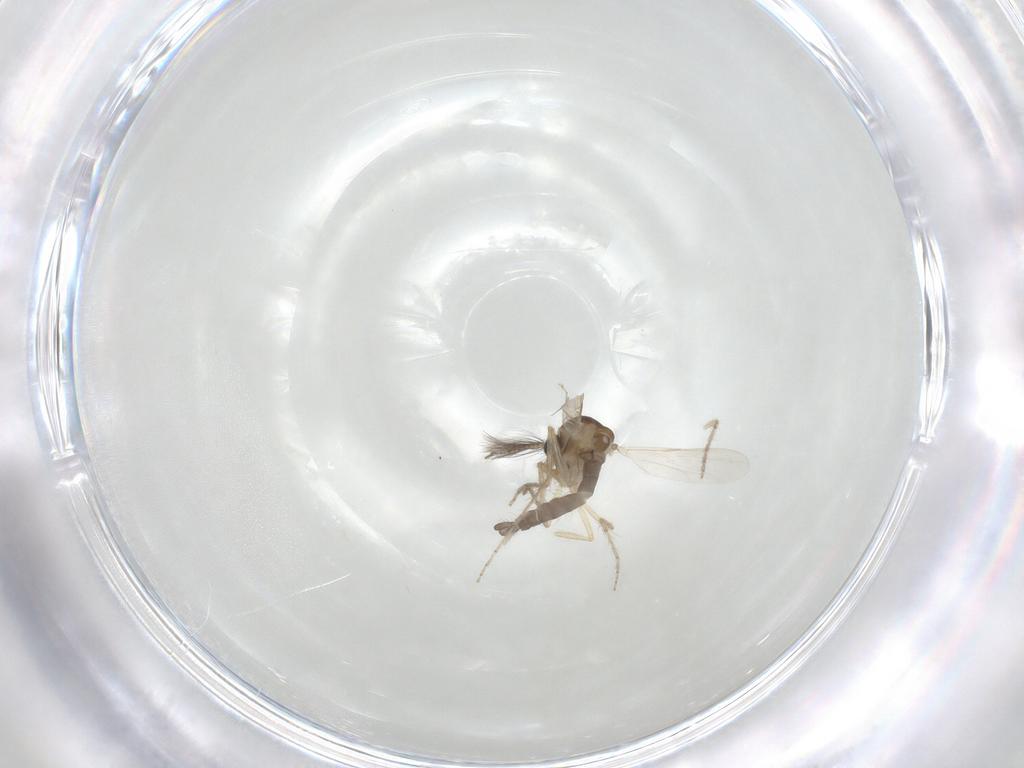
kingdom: Animalia
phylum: Arthropoda
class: Insecta
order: Diptera
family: Ceratopogonidae
